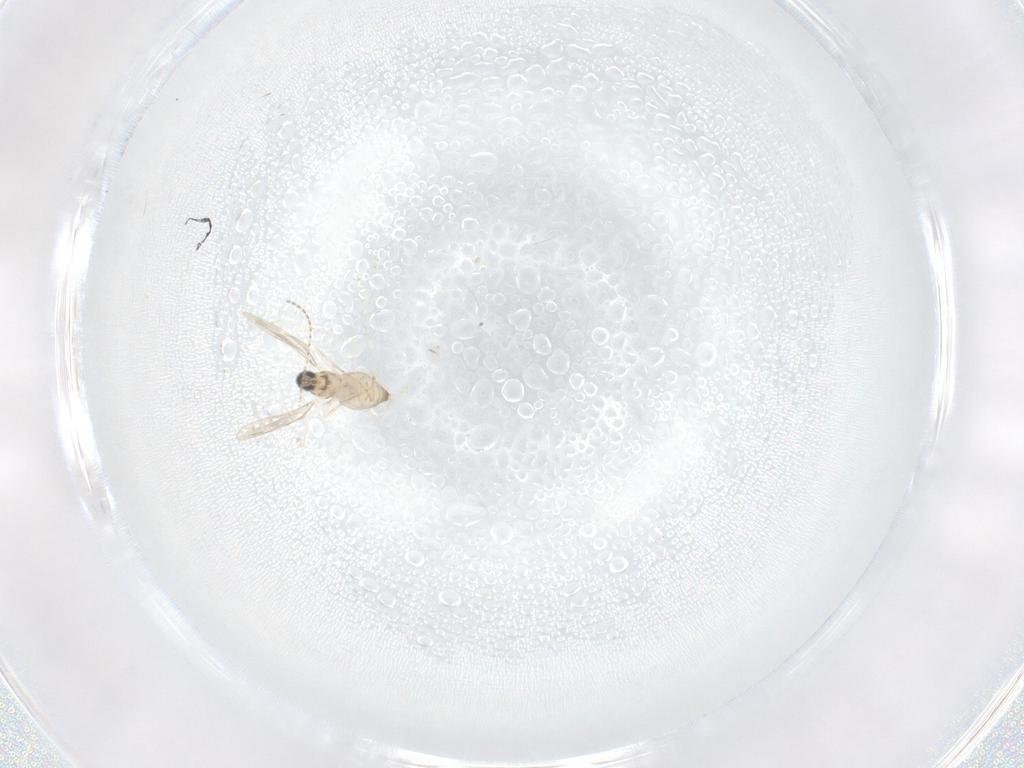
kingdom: Animalia
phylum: Arthropoda
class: Insecta
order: Diptera
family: Cecidomyiidae
